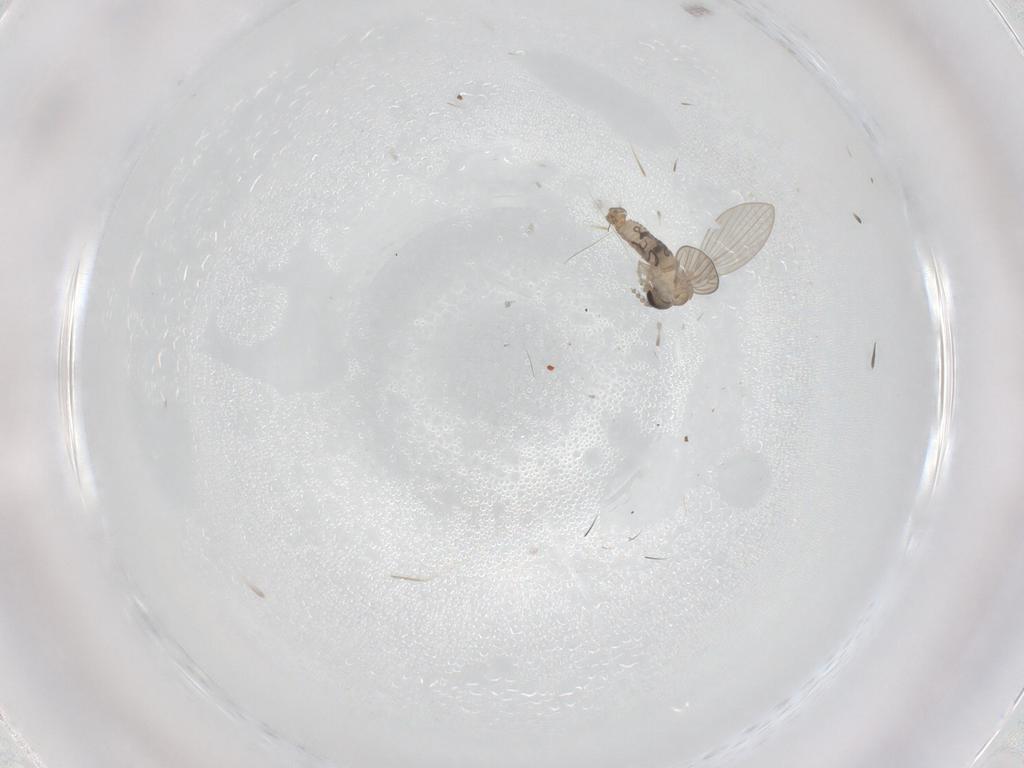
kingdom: Animalia
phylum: Arthropoda
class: Insecta
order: Diptera
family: Psychodidae
